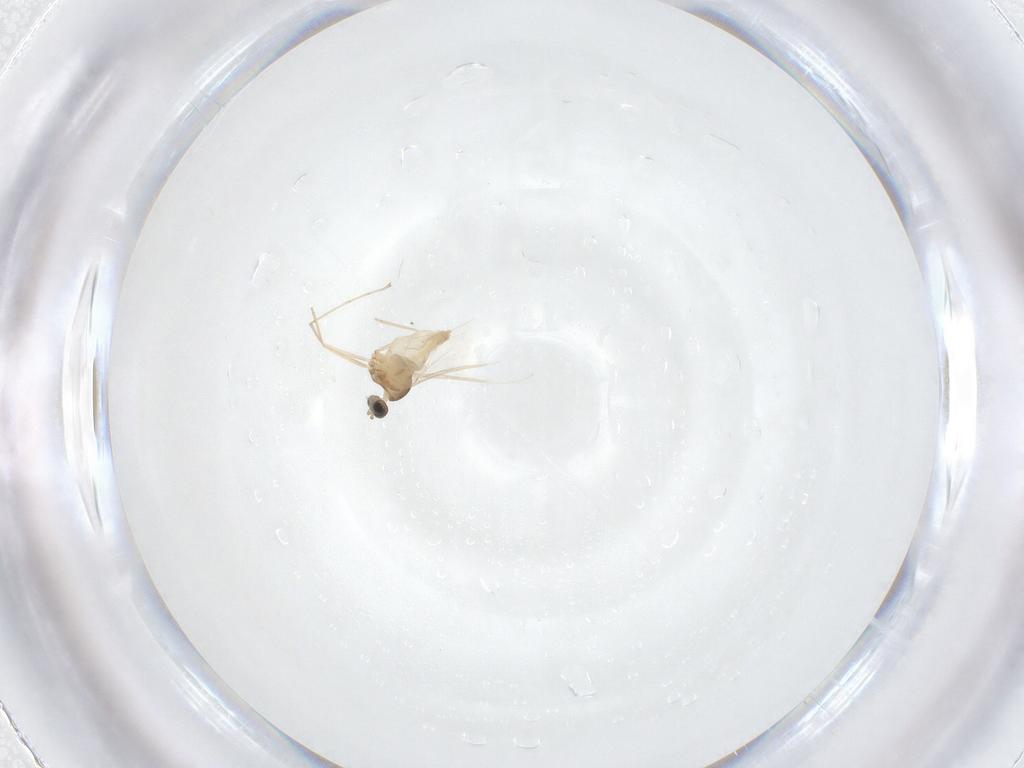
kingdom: Animalia
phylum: Arthropoda
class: Insecta
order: Diptera
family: Cecidomyiidae
